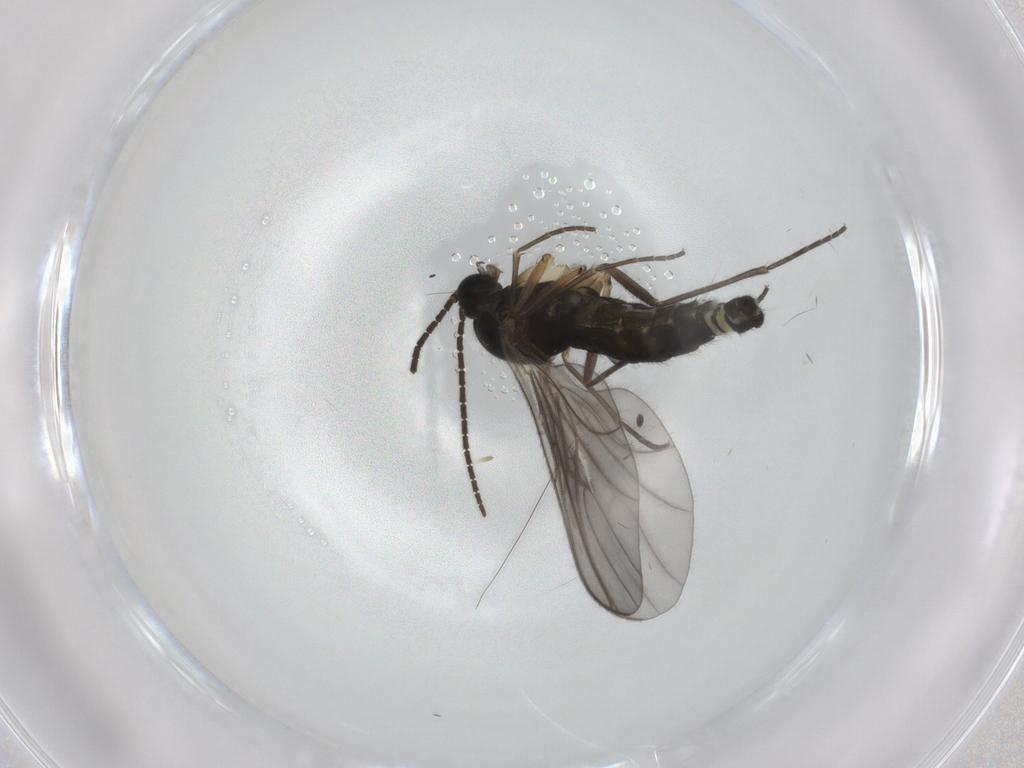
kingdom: Animalia
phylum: Arthropoda
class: Insecta
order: Diptera
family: Sciaridae
